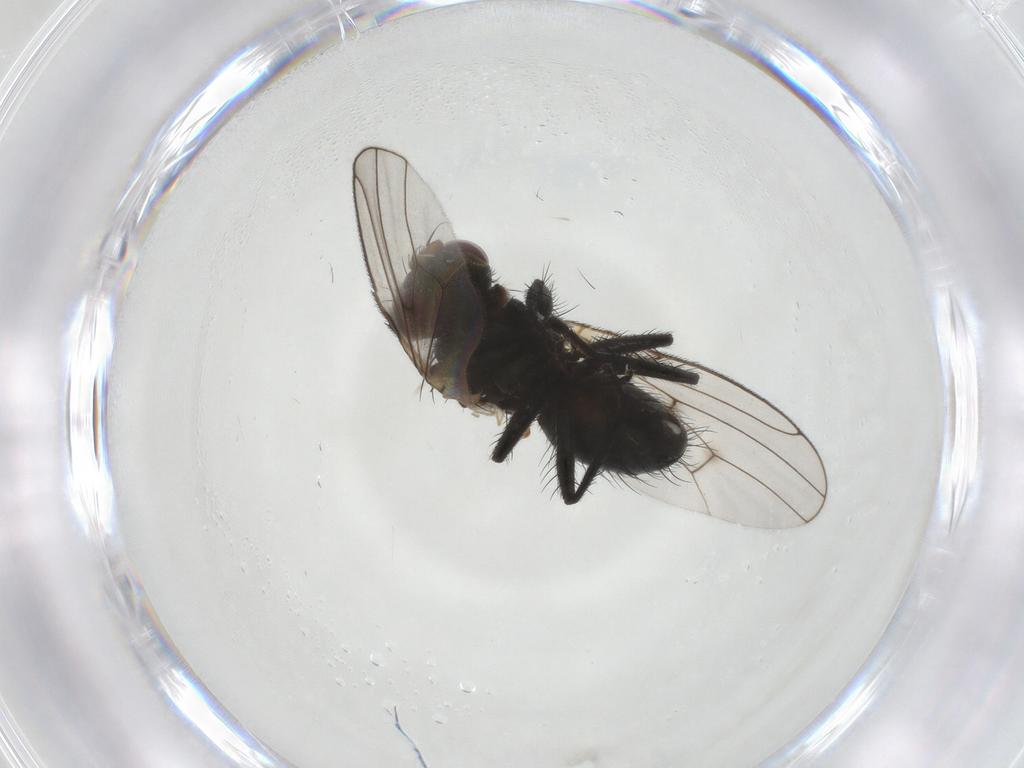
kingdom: Animalia
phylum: Arthropoda
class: Insecta
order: Diptera
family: Muscidae
